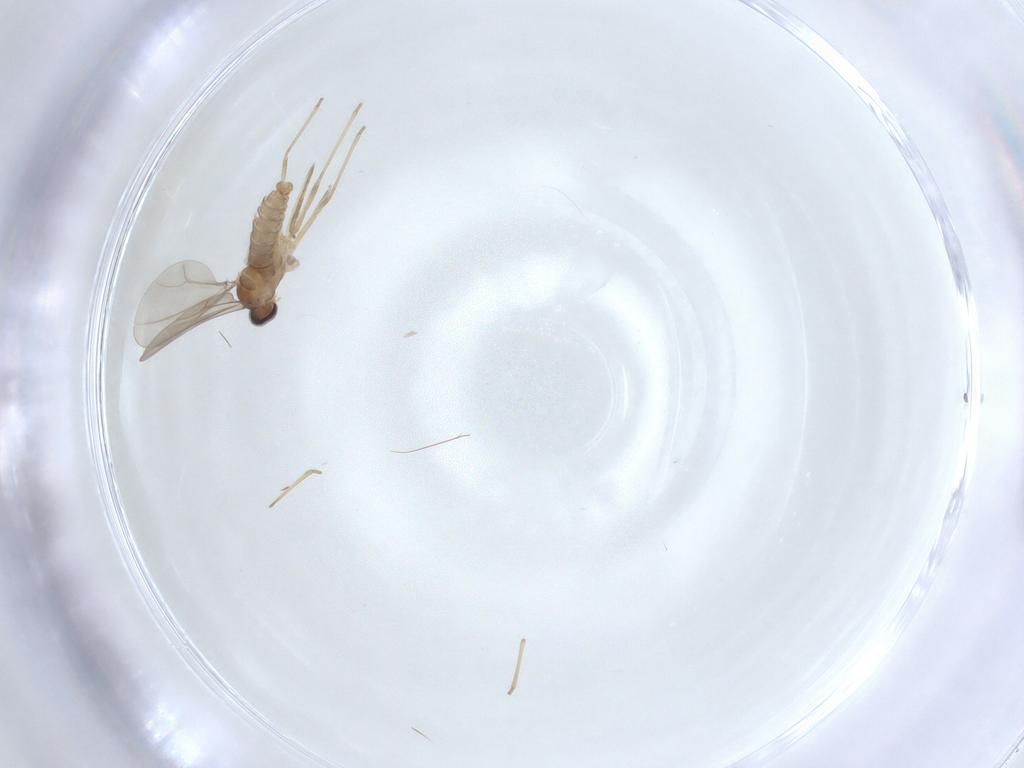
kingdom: Animalia
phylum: Arthropoda
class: Insecta
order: Diptera
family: Cecidomyiidae
